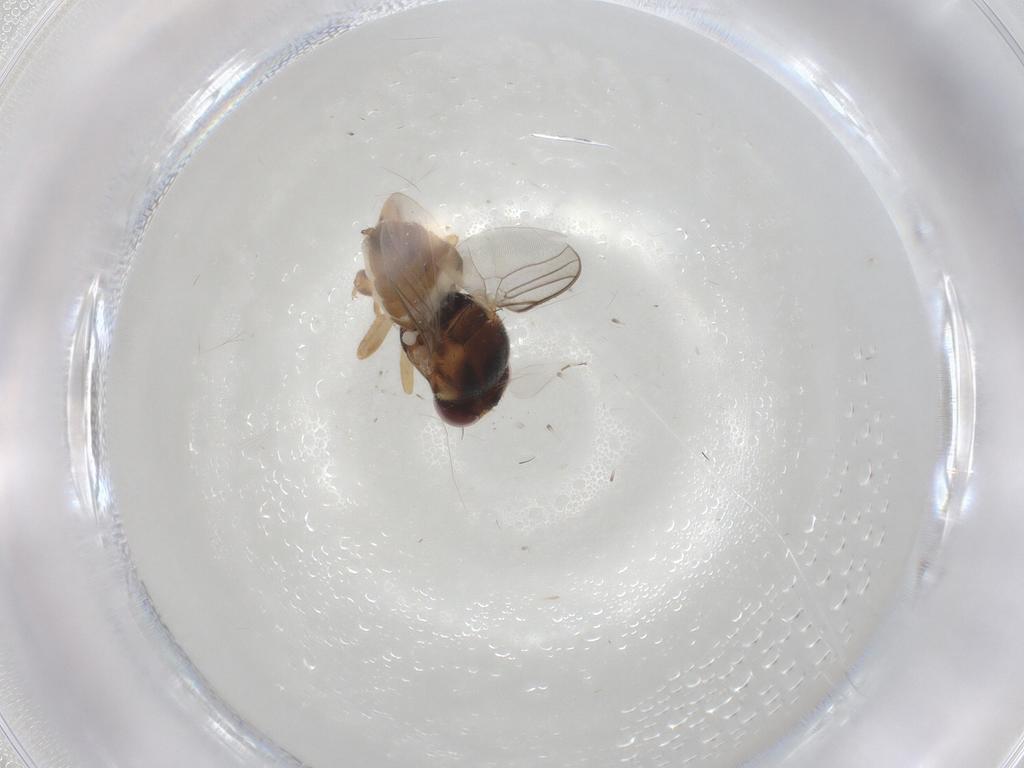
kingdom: Animalia
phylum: Arthropoda
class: Insecta
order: Diptera
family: Chloropidae
